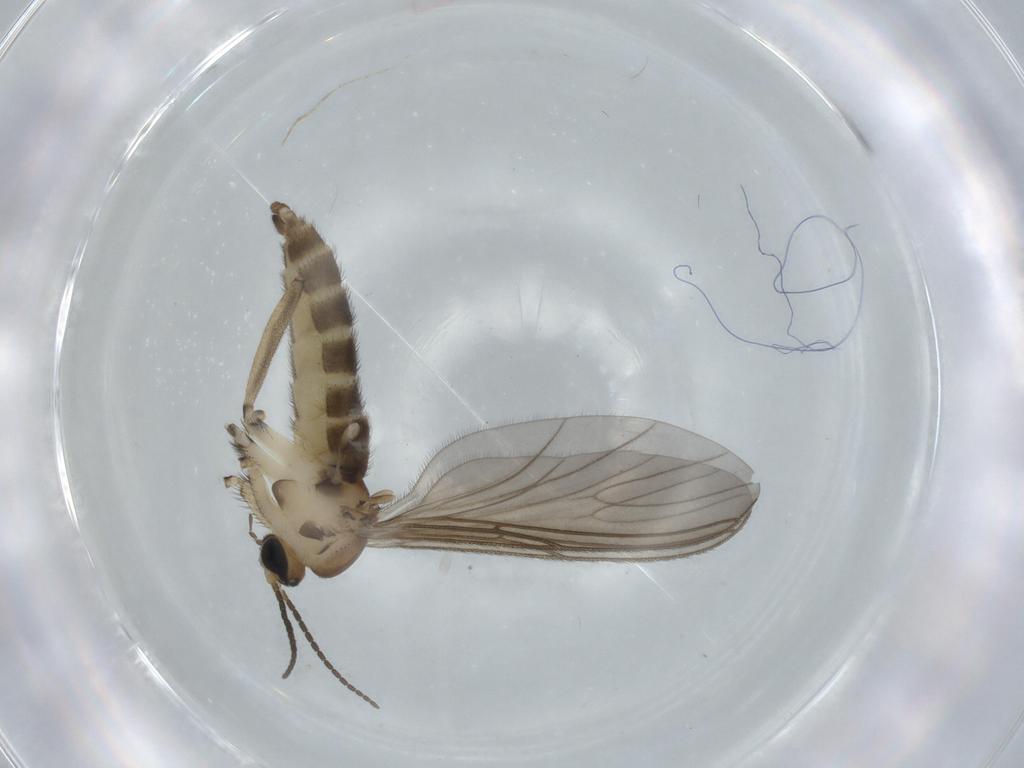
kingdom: Animalia
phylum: Arthropoda
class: Insecta
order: Diptera
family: Sciaridae
